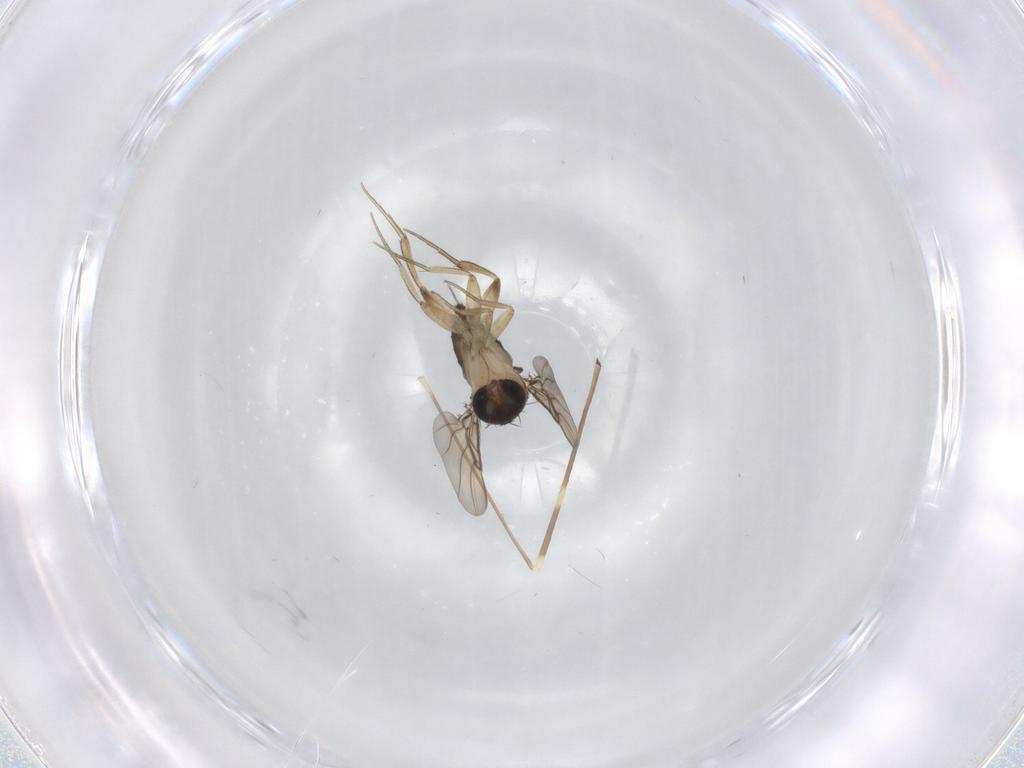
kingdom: Animalia
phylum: Arthropoda
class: Insecta
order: Diptera
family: Phoridae
